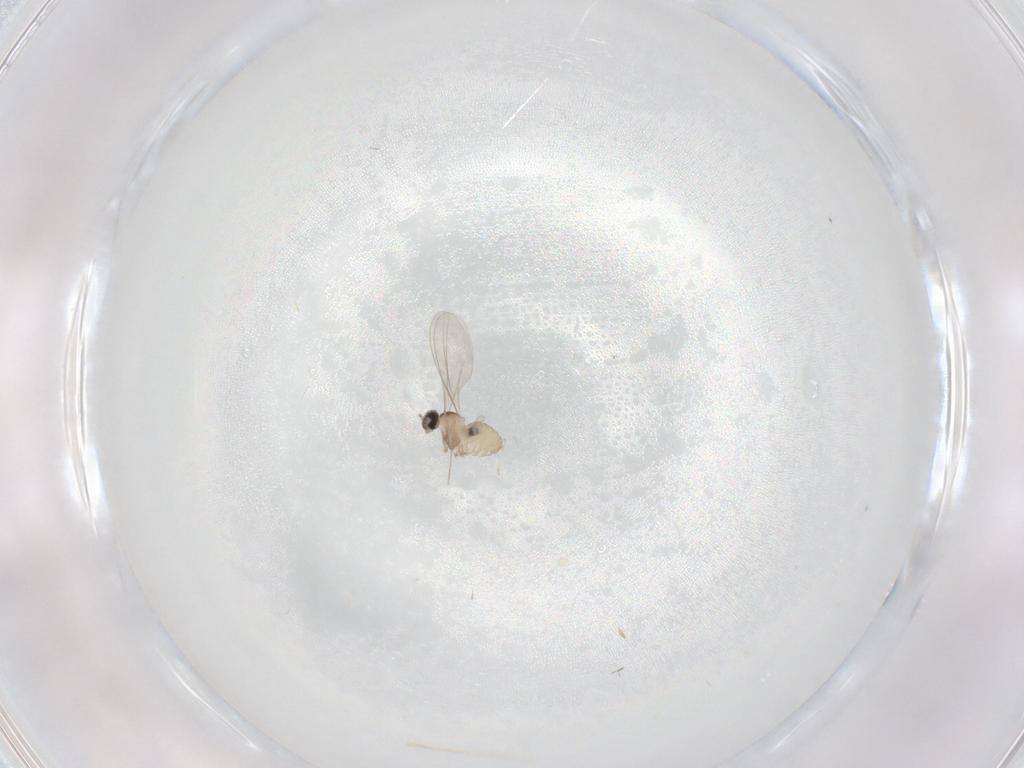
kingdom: Animalia
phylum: Arthropoda
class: Insecta
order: Diptera
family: Cecidomyiidae
